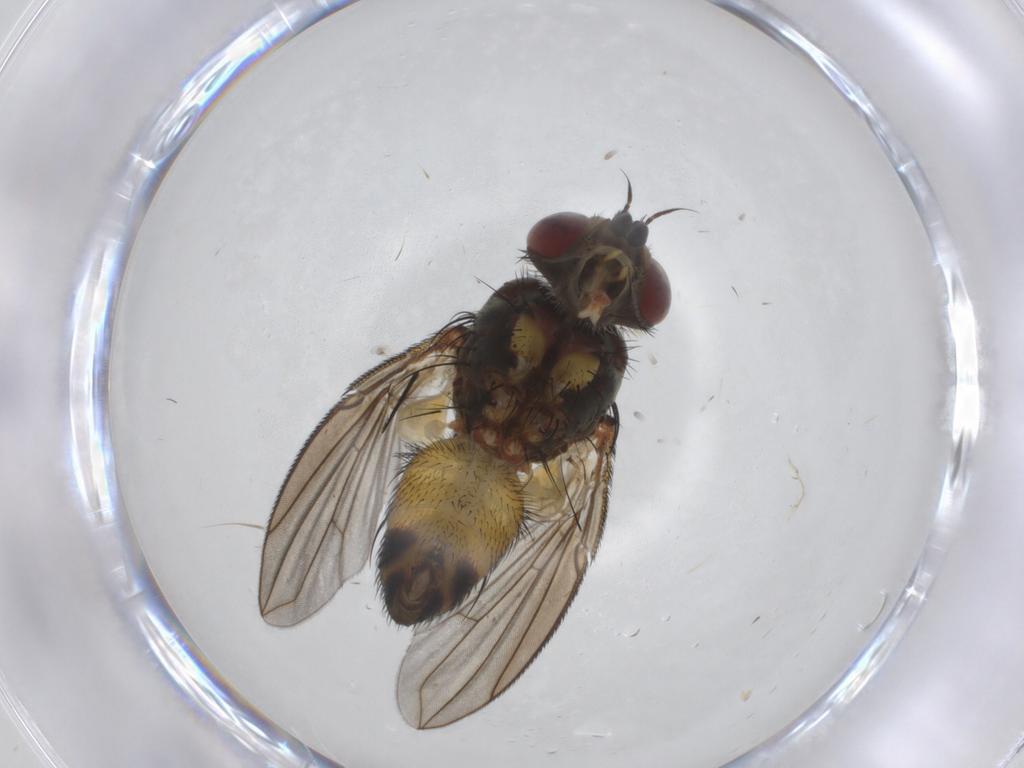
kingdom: Animalia
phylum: Arthropoda
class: Insecta
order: Diptera
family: Tachinidae
